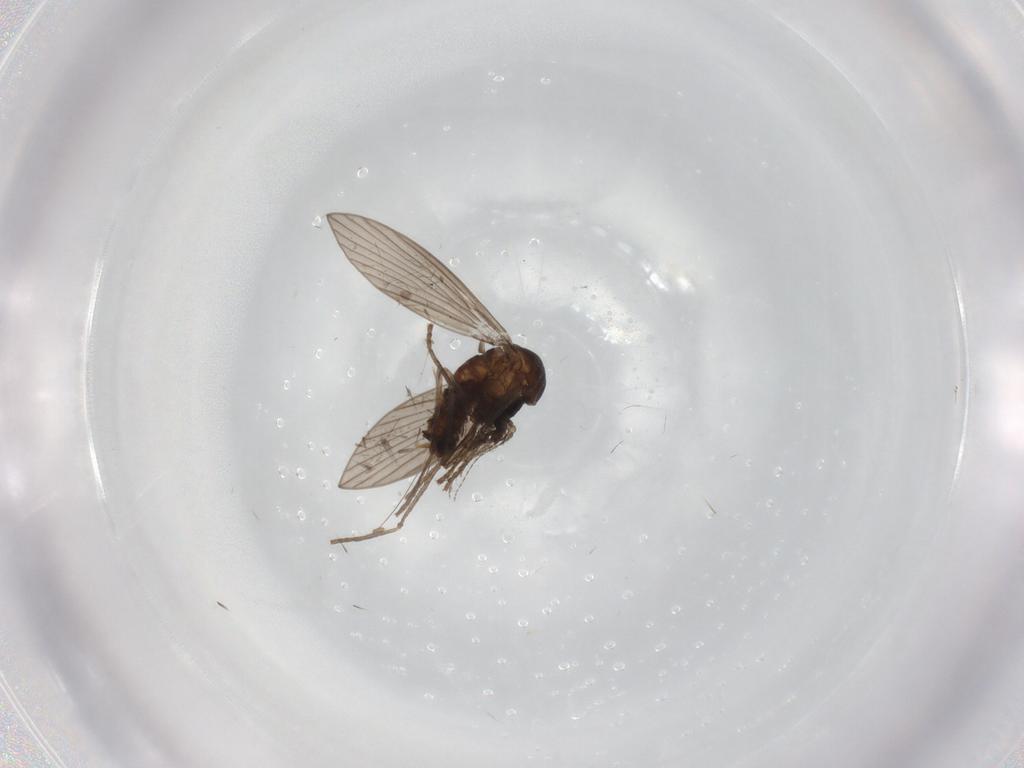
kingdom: Animalia
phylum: Arthropoda
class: Insecta
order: Diptera
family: Psychodidae
